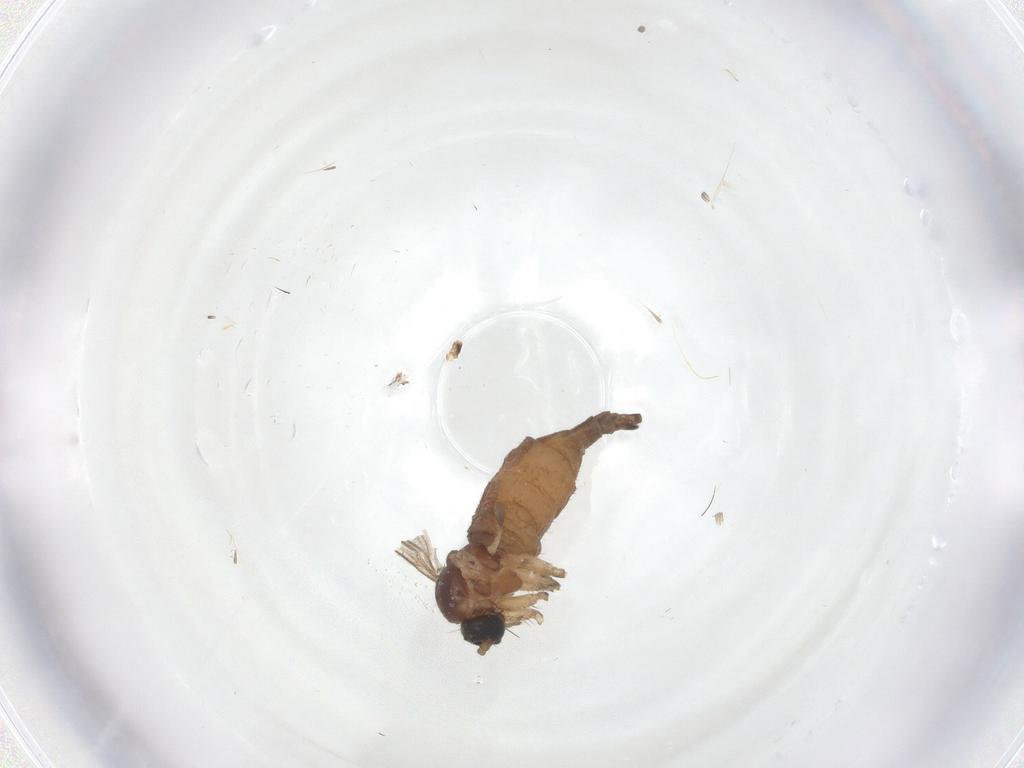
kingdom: Animalia
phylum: Arthropoda
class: Insecta
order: Diptera
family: Sciaridae
